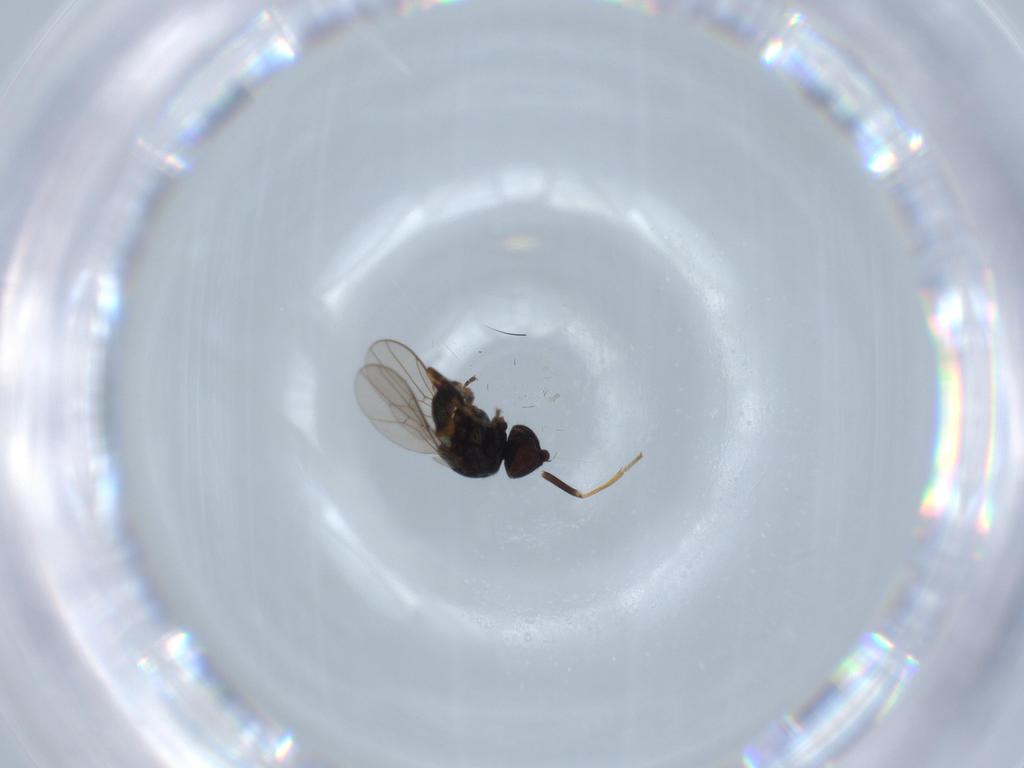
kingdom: Animalia
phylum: Arthropoda
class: Insecta
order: Diptera
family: Chloropidae
